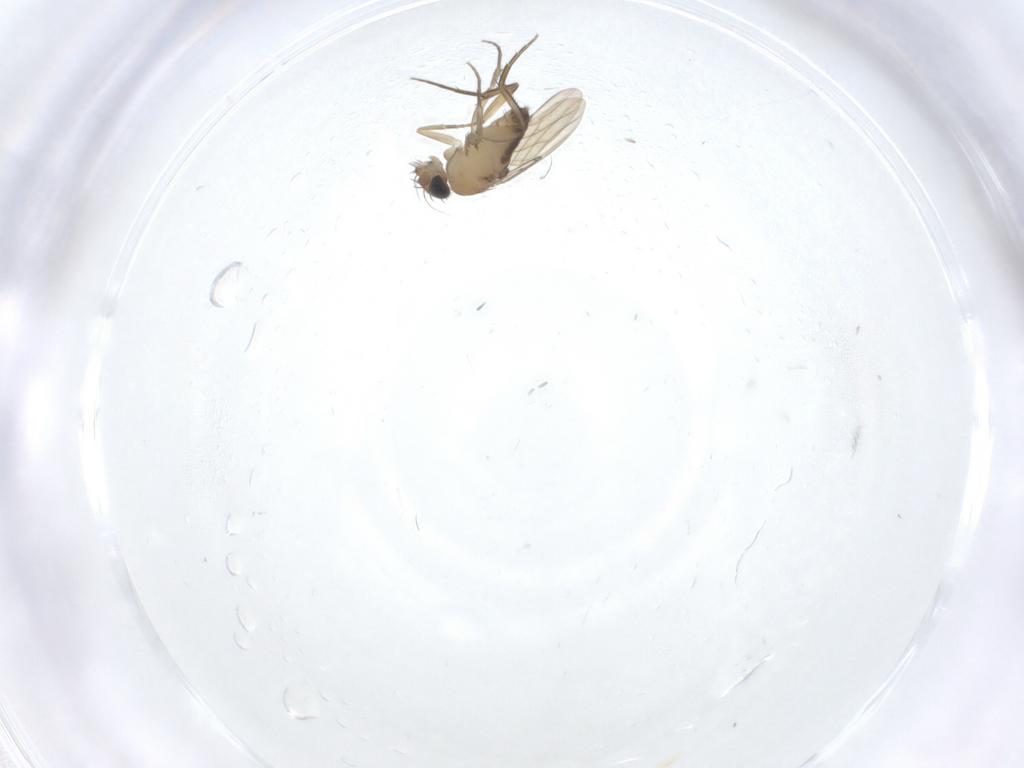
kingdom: Animalia
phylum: Arthropoda
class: Insecta
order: Diptera
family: Phoridae
